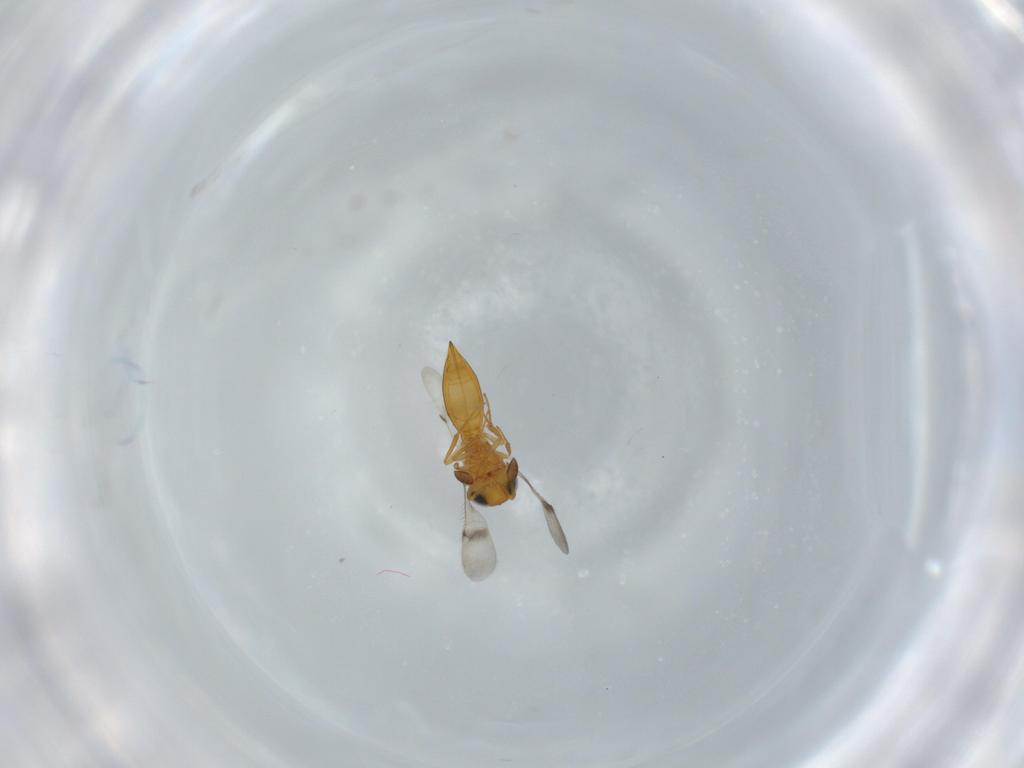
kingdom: Animalia
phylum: Arthropoda
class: Insecta
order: Hymenoptera
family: Scelionidae
